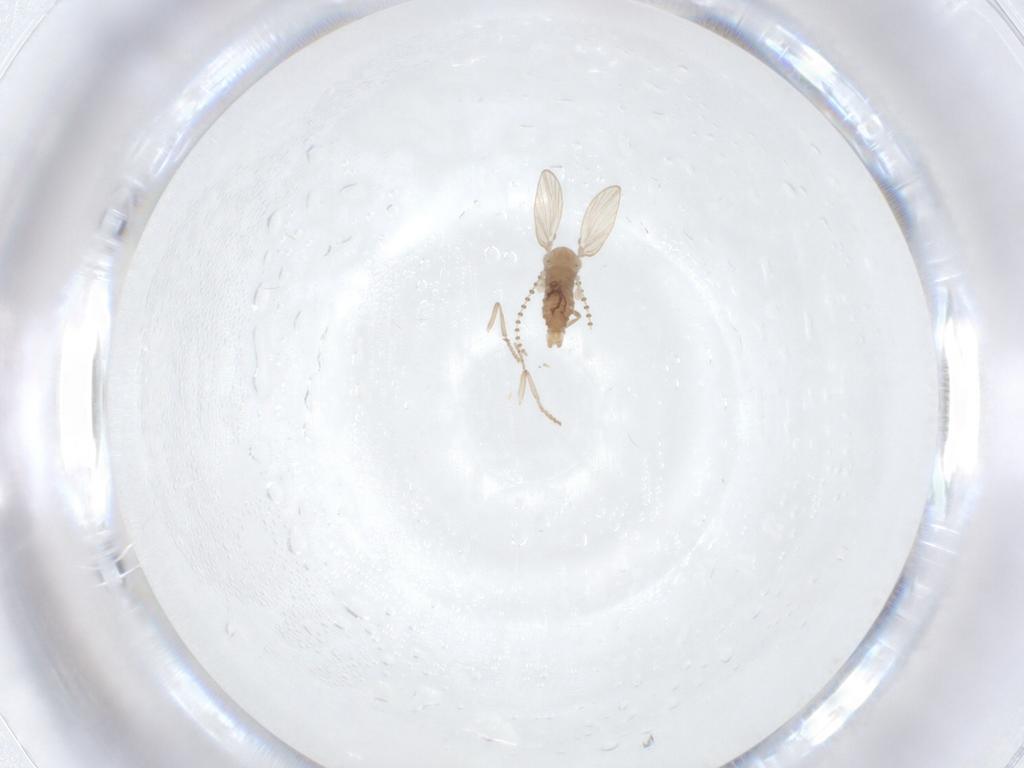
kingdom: Animalia
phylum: Arthropoda
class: Insecta
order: Diptera
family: Psychodidae
